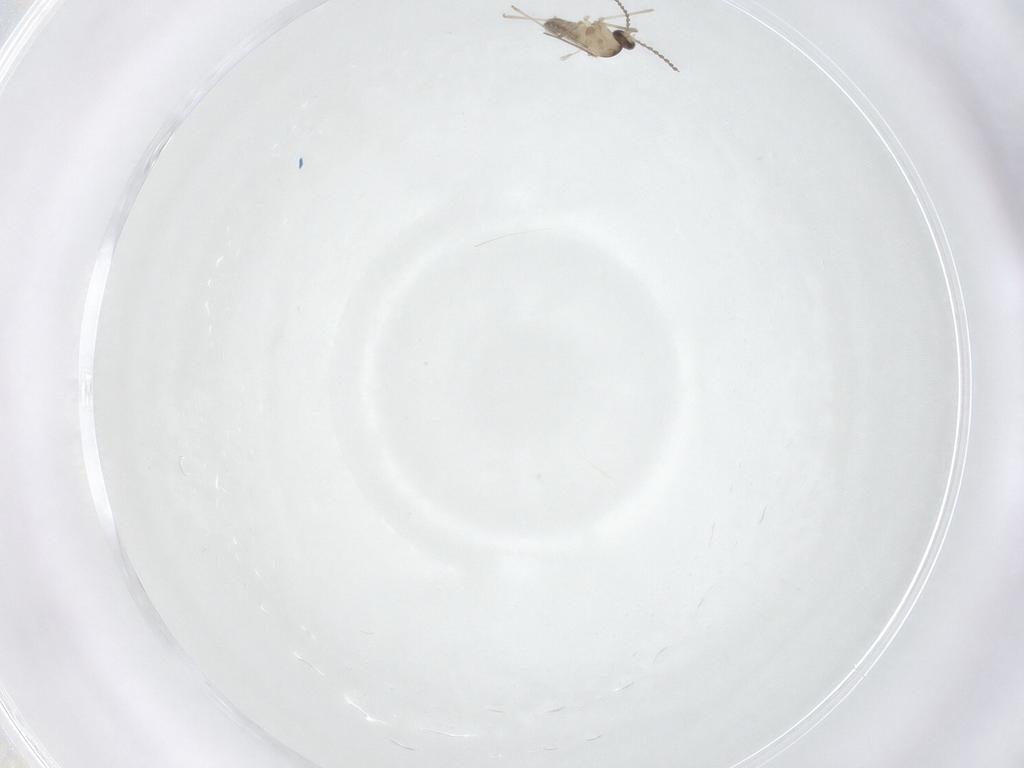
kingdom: Animalia
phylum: Arthropoda
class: Insecta
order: Diptera
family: Cecidomyiidae
